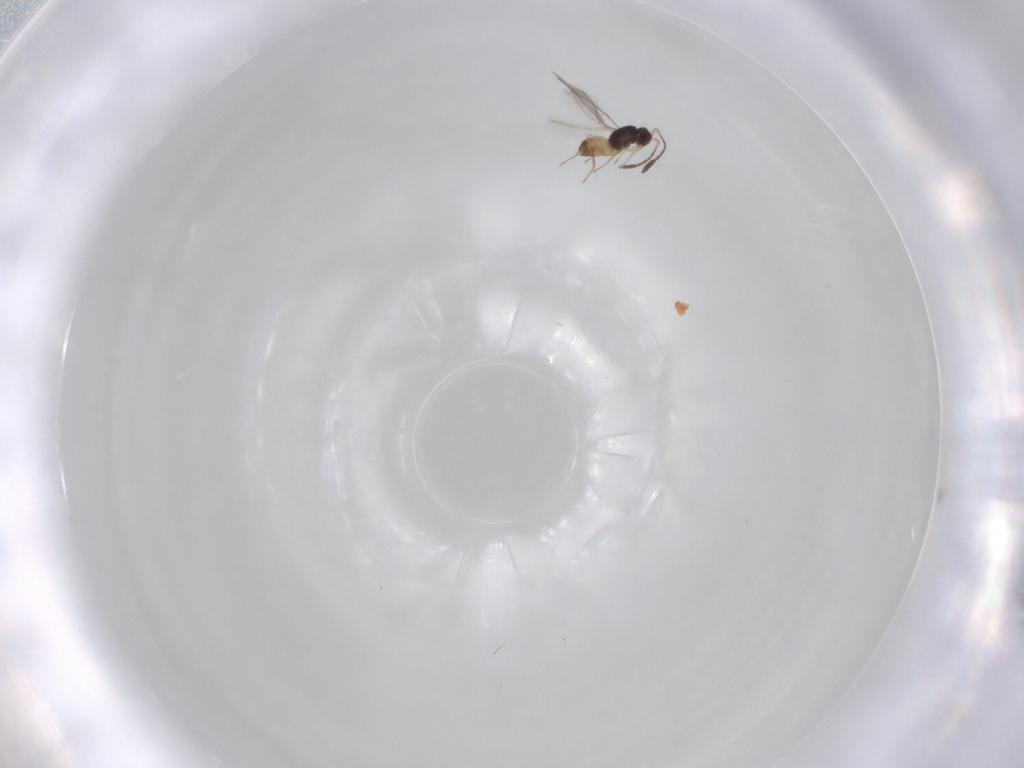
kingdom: Animalia
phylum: Arthropoda
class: Insecta
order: Hymenoptera
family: Mymaridae
